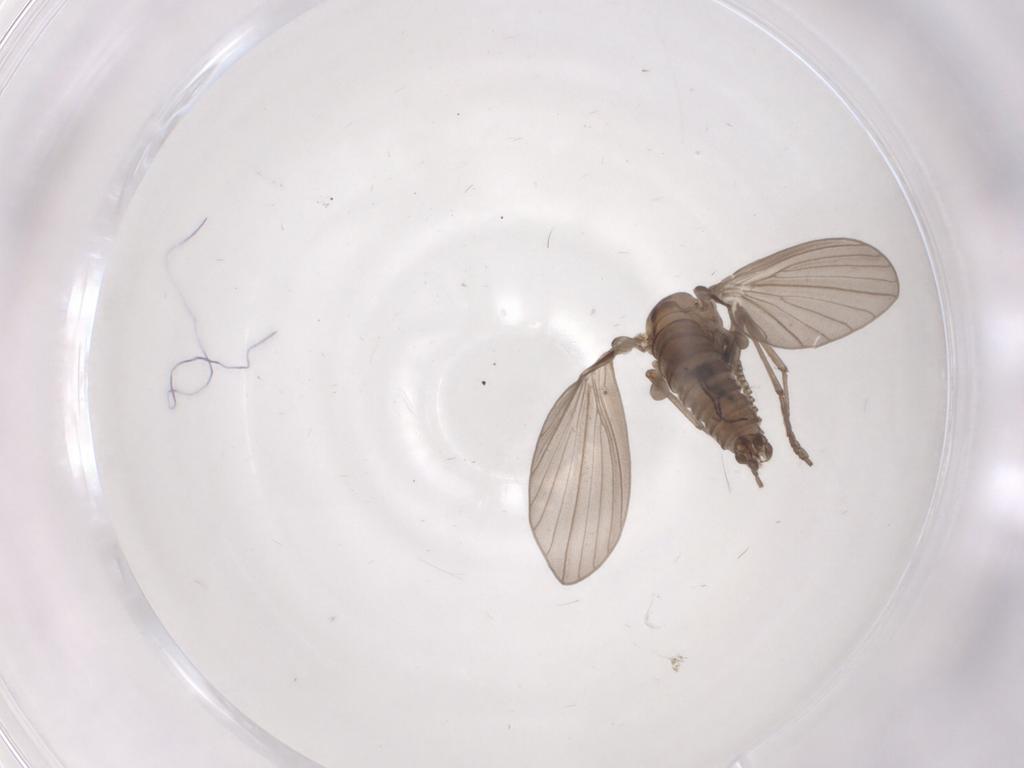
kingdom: Animalia
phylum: Arthropoda
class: Insecta
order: Diptera
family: Psychodidae
